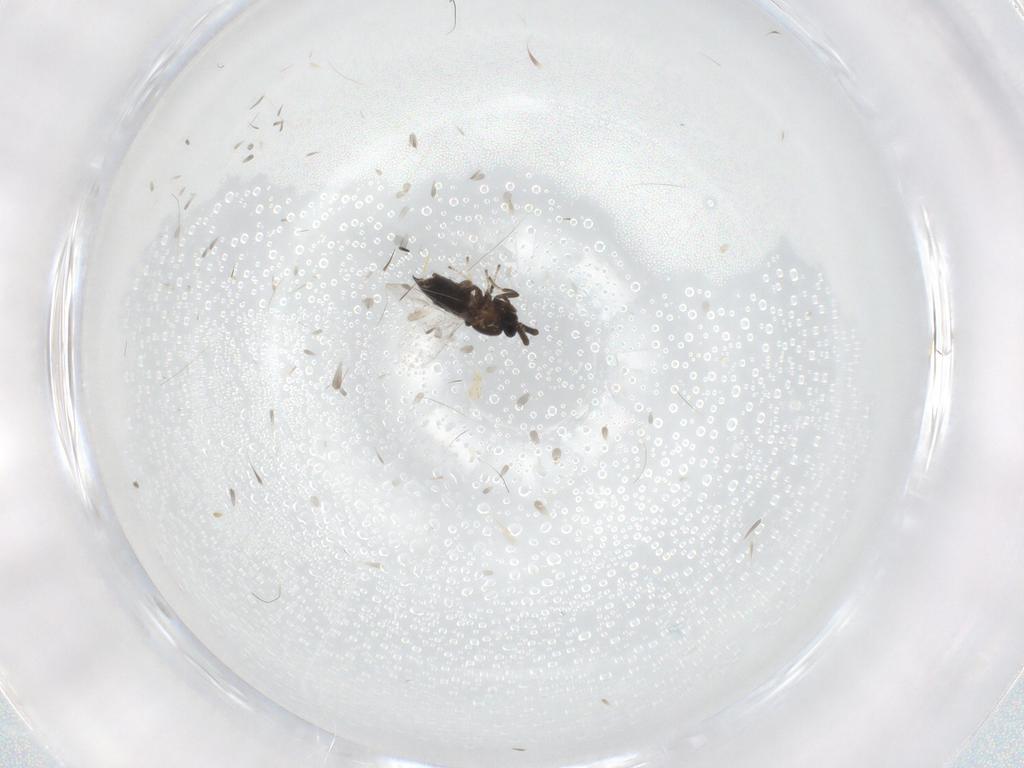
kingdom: Animalia
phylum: Arthropoda
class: Insecta
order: Diptera
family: Scatopsidae
